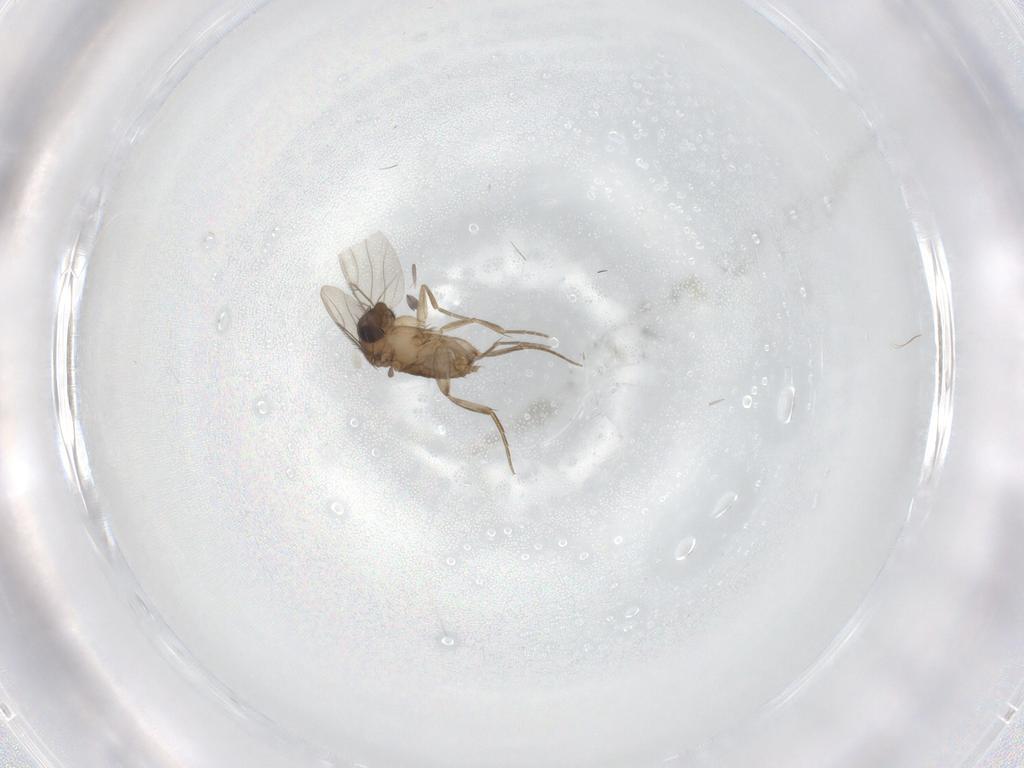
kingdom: Animalia
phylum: Arthropoda
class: Insecta
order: Diptera
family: Phoridae
